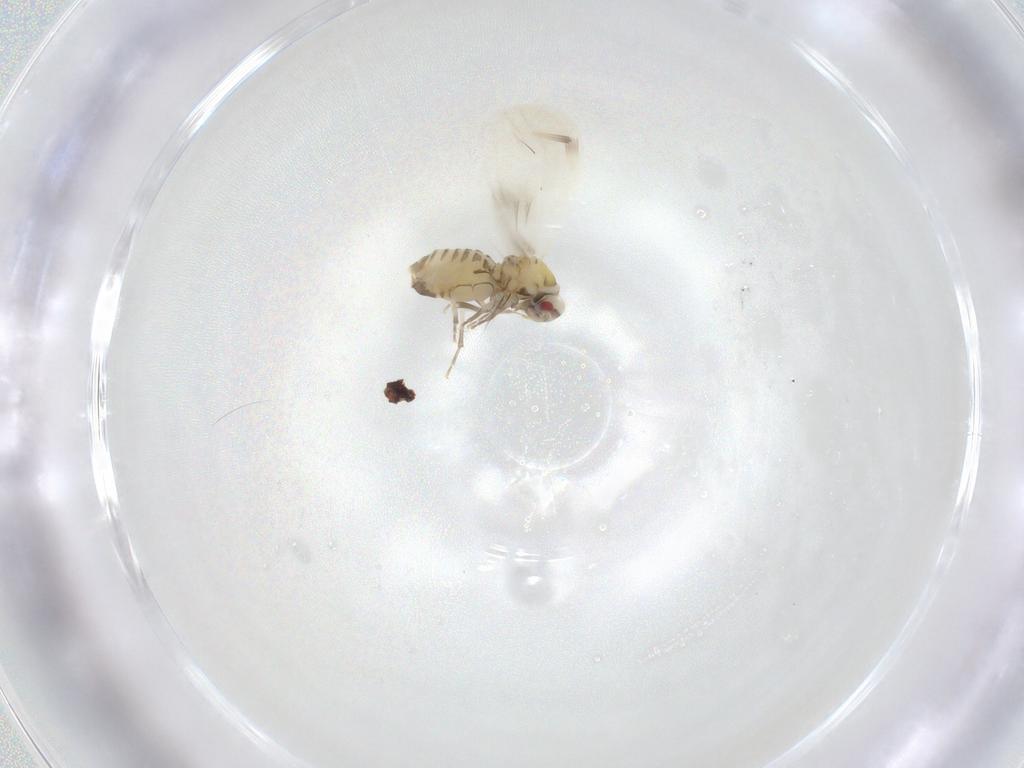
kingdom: Animalia
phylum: Arthropoda
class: Insecta
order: Hemiptera
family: Aleyrodidae
